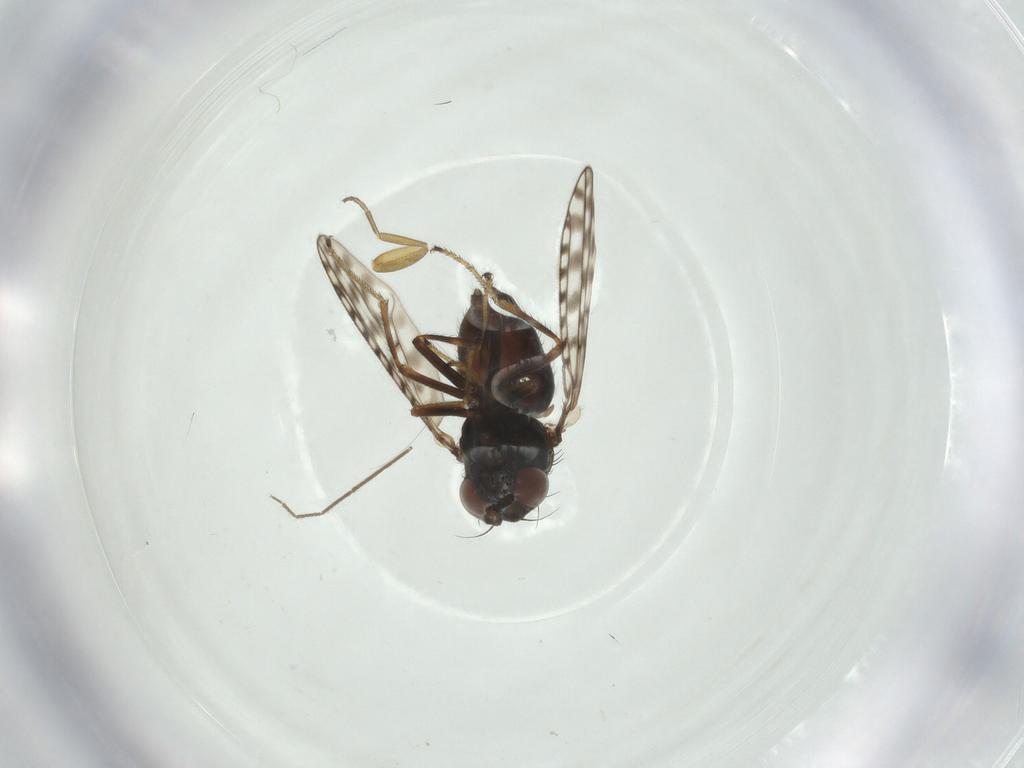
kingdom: Animalia
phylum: Arthropoda
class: Insecta
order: Diptera
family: Ephydridae
